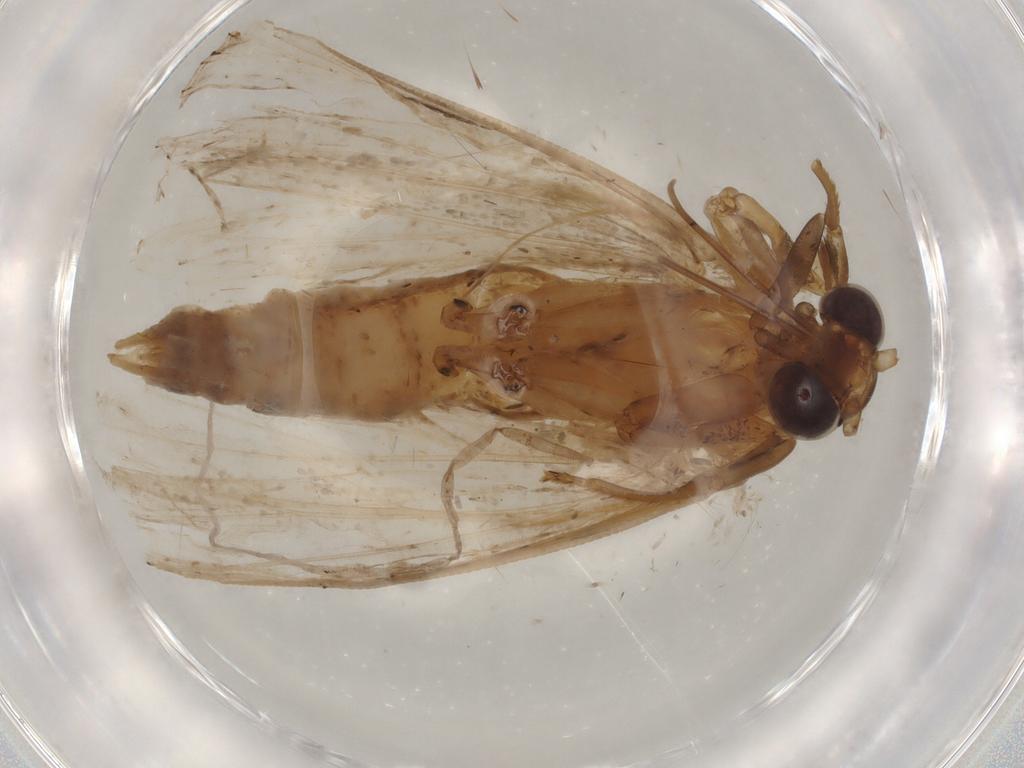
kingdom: Animalia
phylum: Arthropoda
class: Insecta
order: Lepidoptera
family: Erebidae
